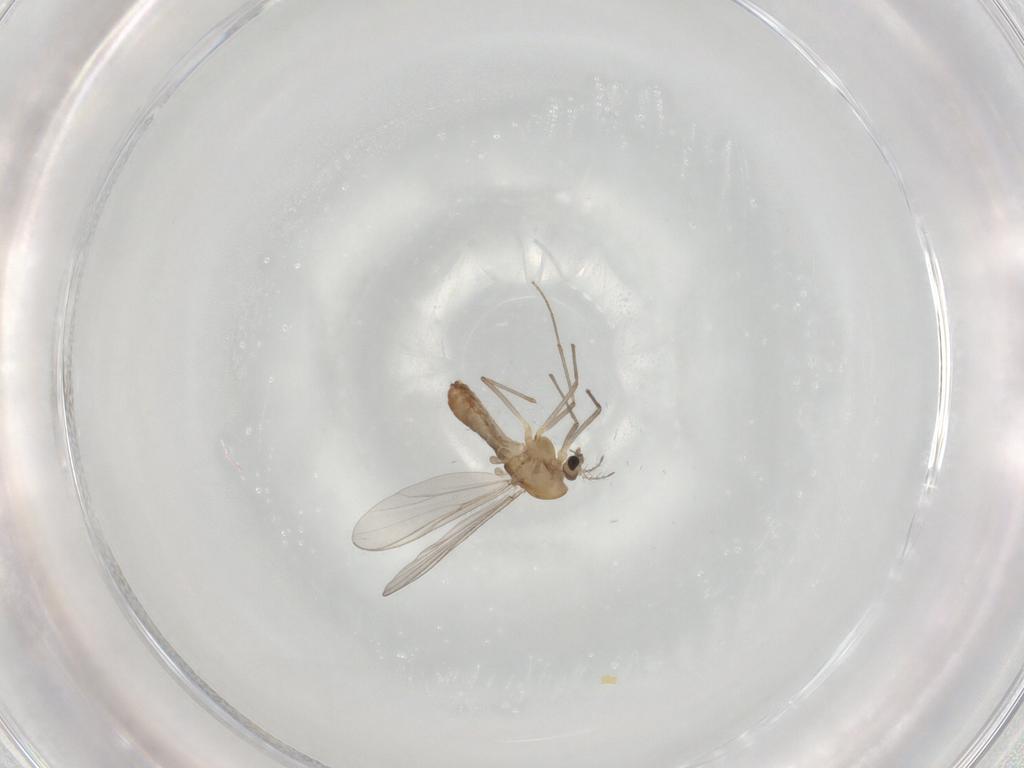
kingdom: Animalia
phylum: Arthropoda
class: Insecta
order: Diptera
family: Chironomidae
